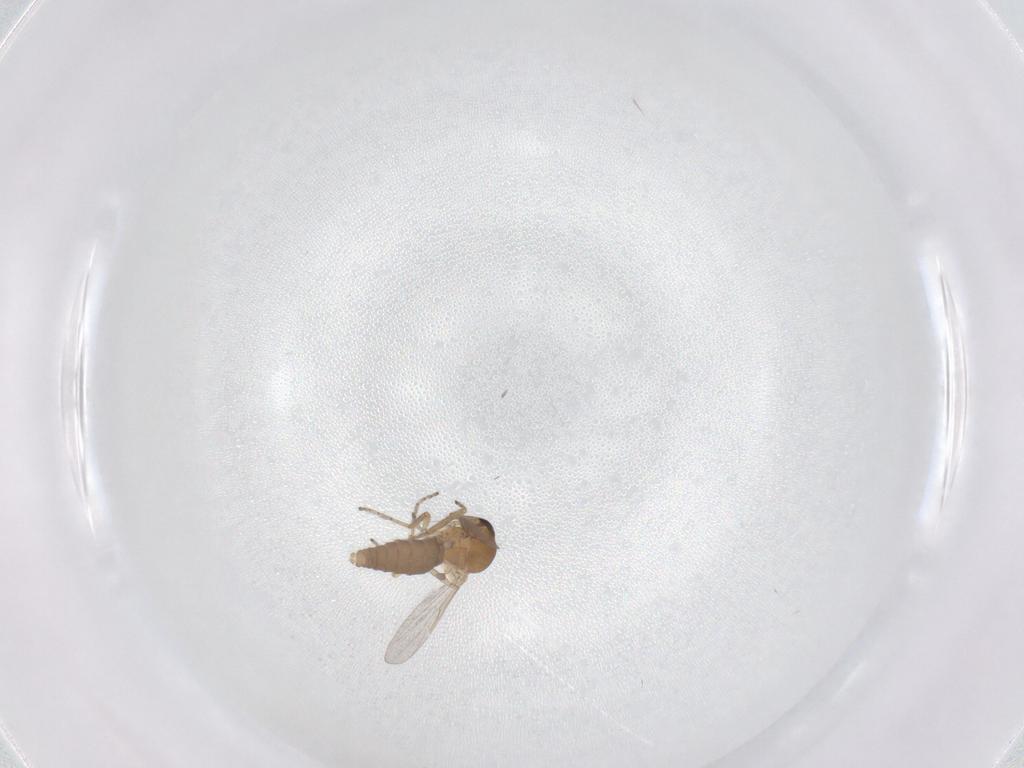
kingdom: Animalia
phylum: Arthropoda
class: Insecta
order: Diptera
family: Ceratopogonidae
